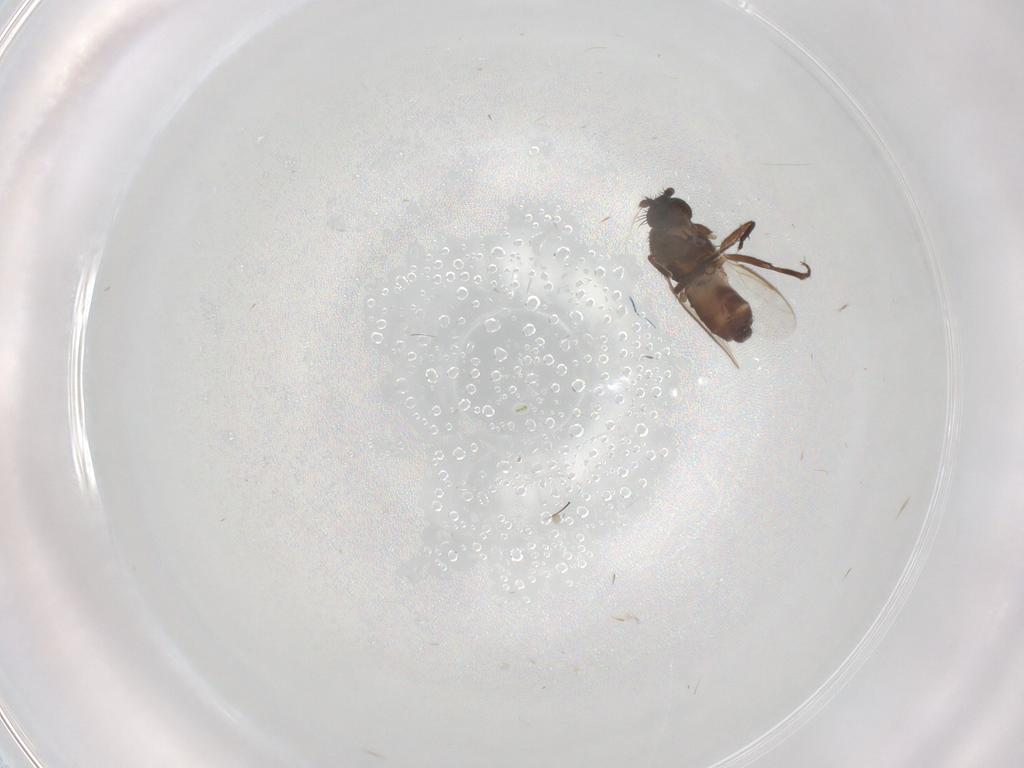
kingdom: Animalia
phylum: Arthropoda
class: Insecta
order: Diptera
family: Sphaeroceridae
